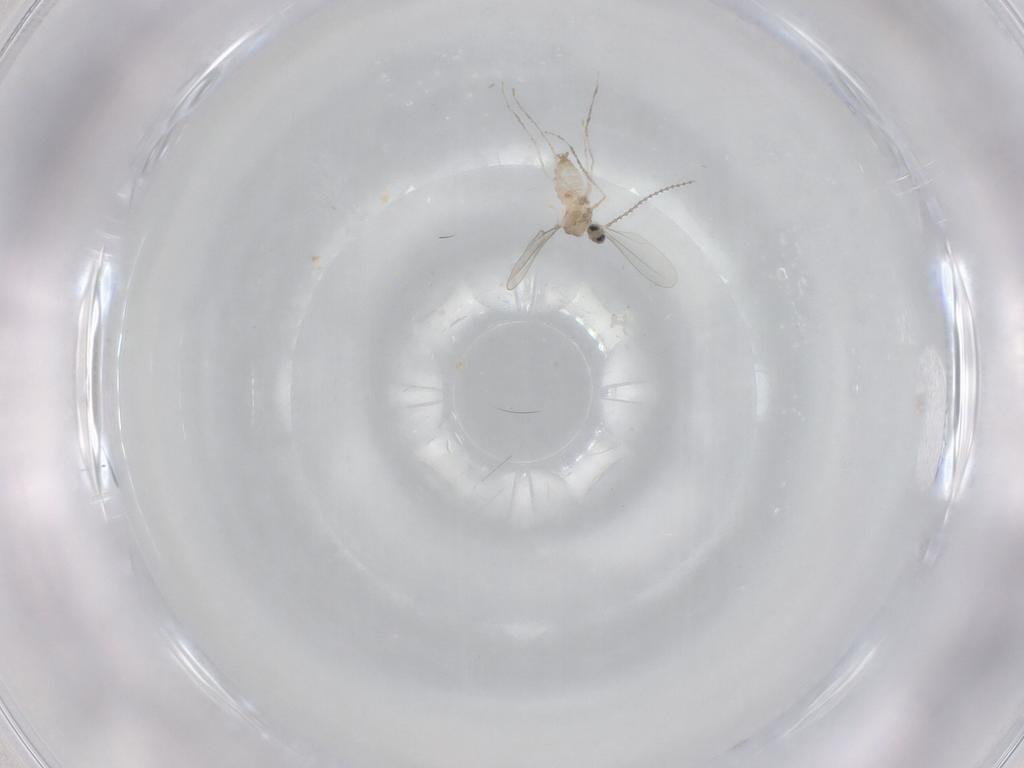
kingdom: Animalia
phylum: Arthropoda
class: Insecta
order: Diptera
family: Cecidomyiidae
